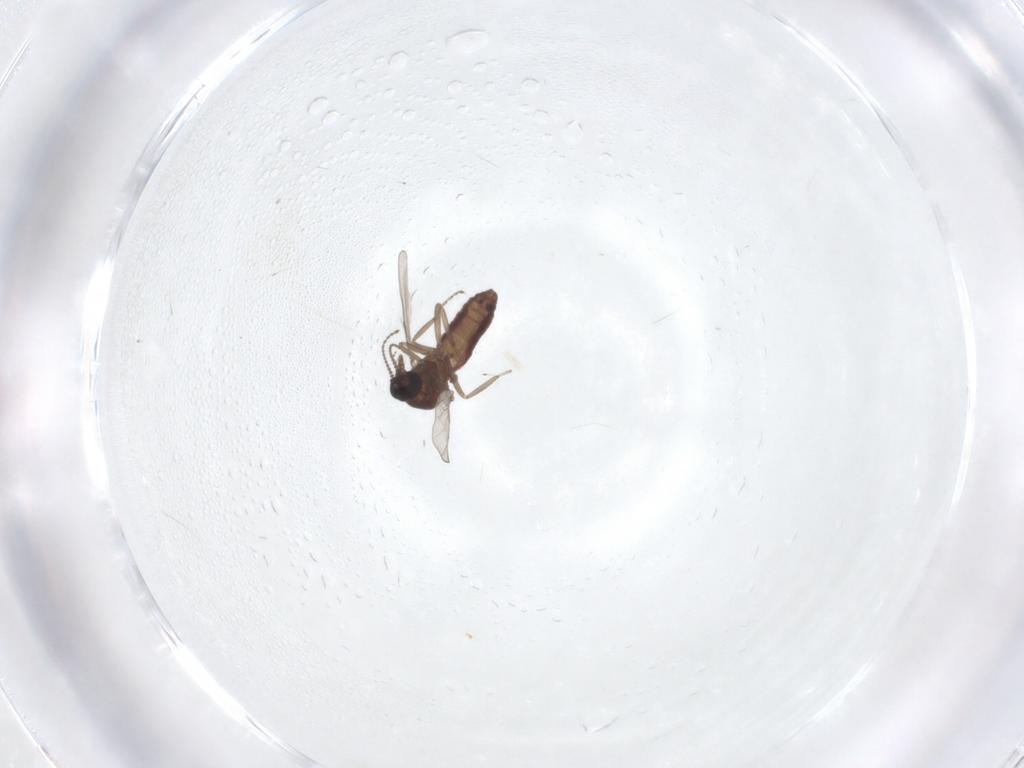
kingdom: Animalia
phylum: Arthropoda
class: Insecta
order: Diptera
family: Ceratopogonidae
